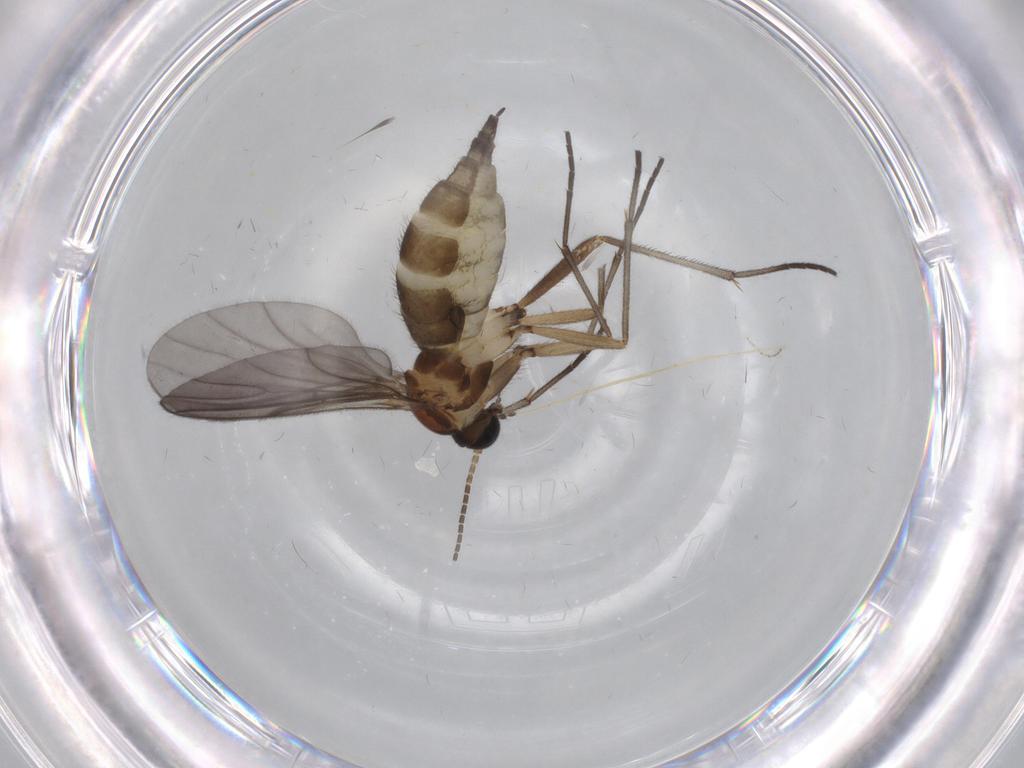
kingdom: Animalia
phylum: Arthropoda
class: Insecta
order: Diptera
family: Sciaridae
